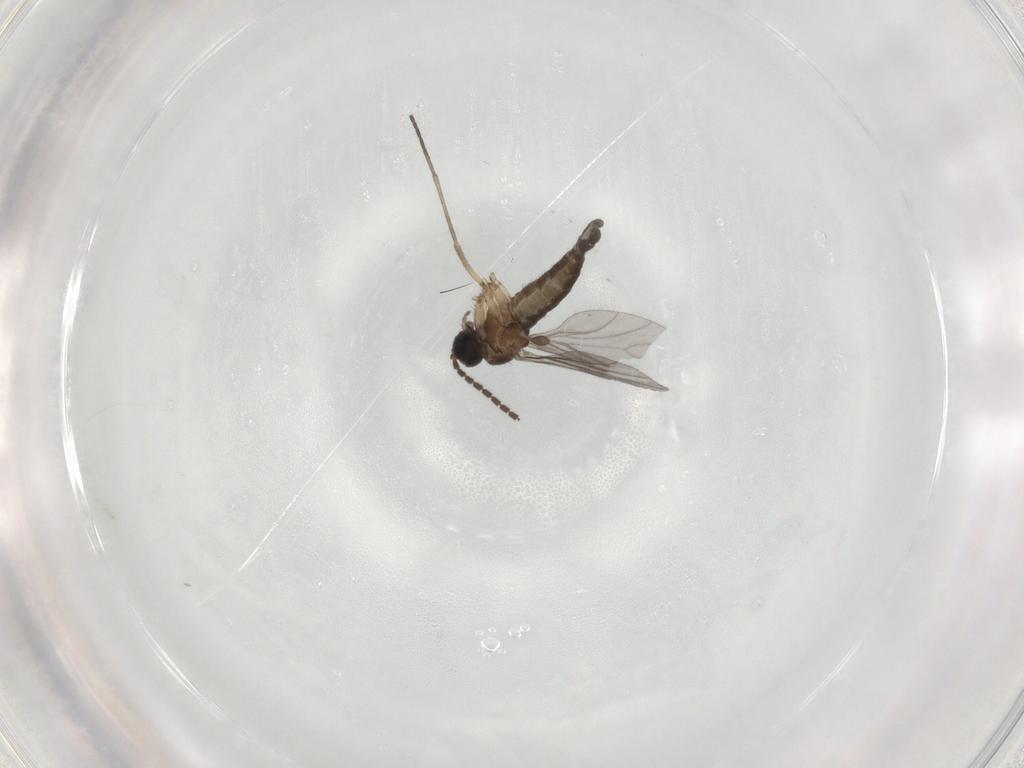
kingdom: Animalia
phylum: Arthropoda
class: Insecta
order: Diptera
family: Sciaridae
